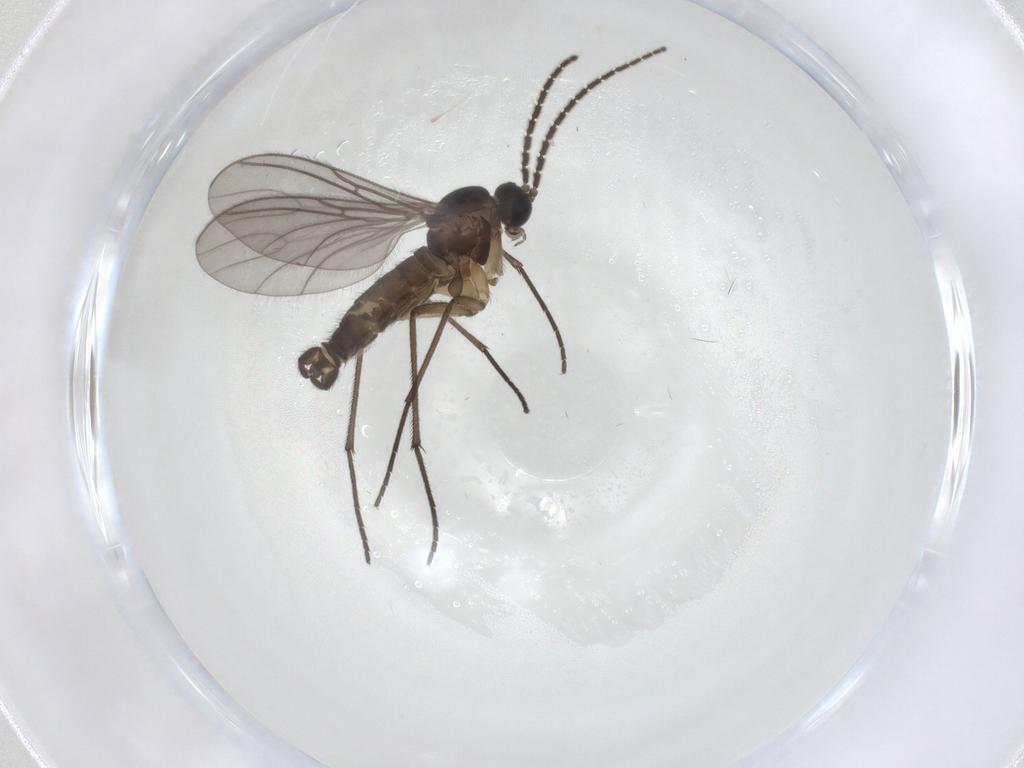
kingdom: Animalia
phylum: Arthropoda
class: Insecta
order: Diptera
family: Sciaridae
